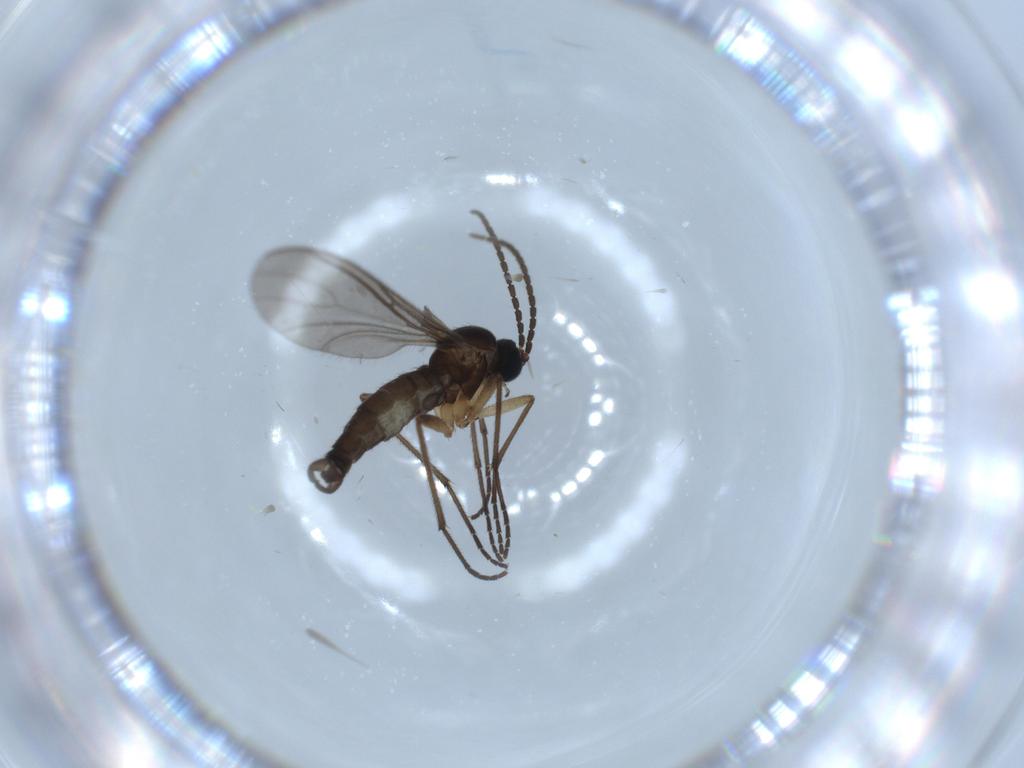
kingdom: Animalia
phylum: Arthropoda
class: Insecta
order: Diptera
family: Sciaridae
